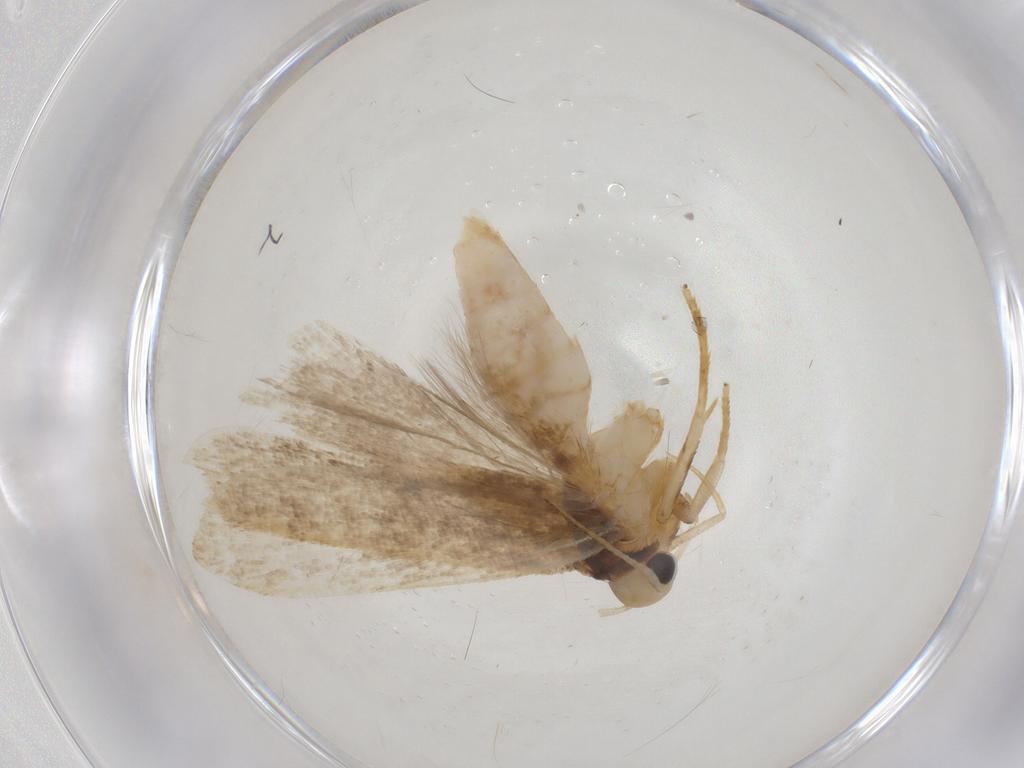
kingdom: Animalia
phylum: Arthropoda
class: Insecta
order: Lepidoptera
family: Gelechiidae
